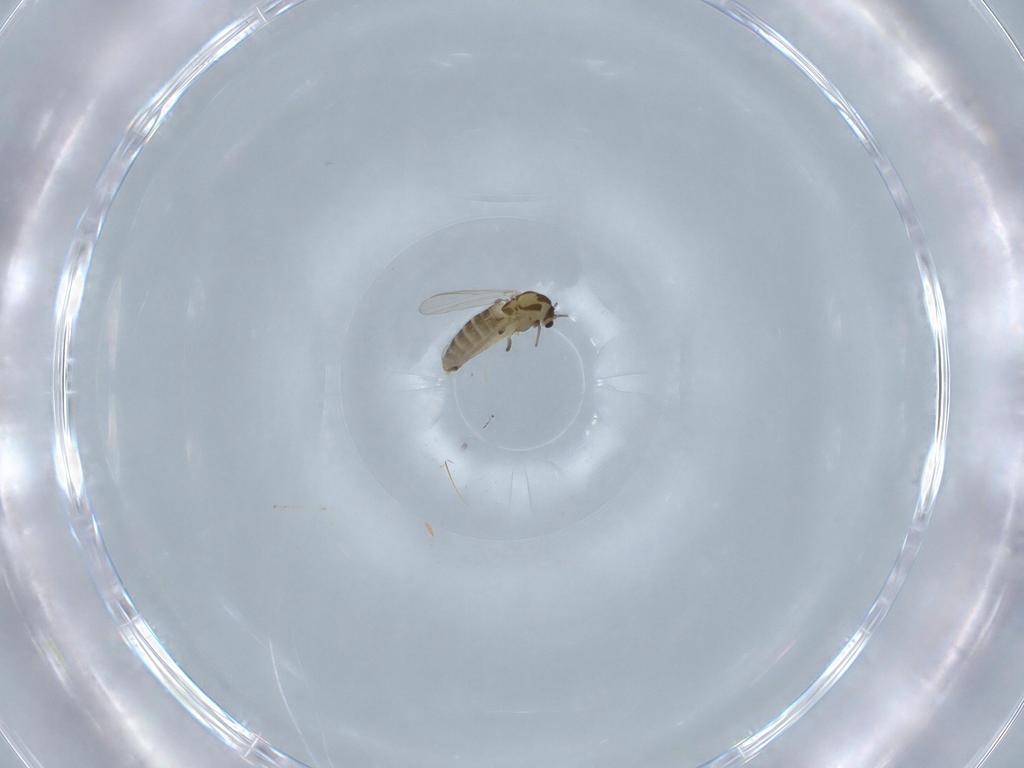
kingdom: Animalia
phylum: Arthropoda
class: Insecta
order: Diptera
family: Chironomidae
